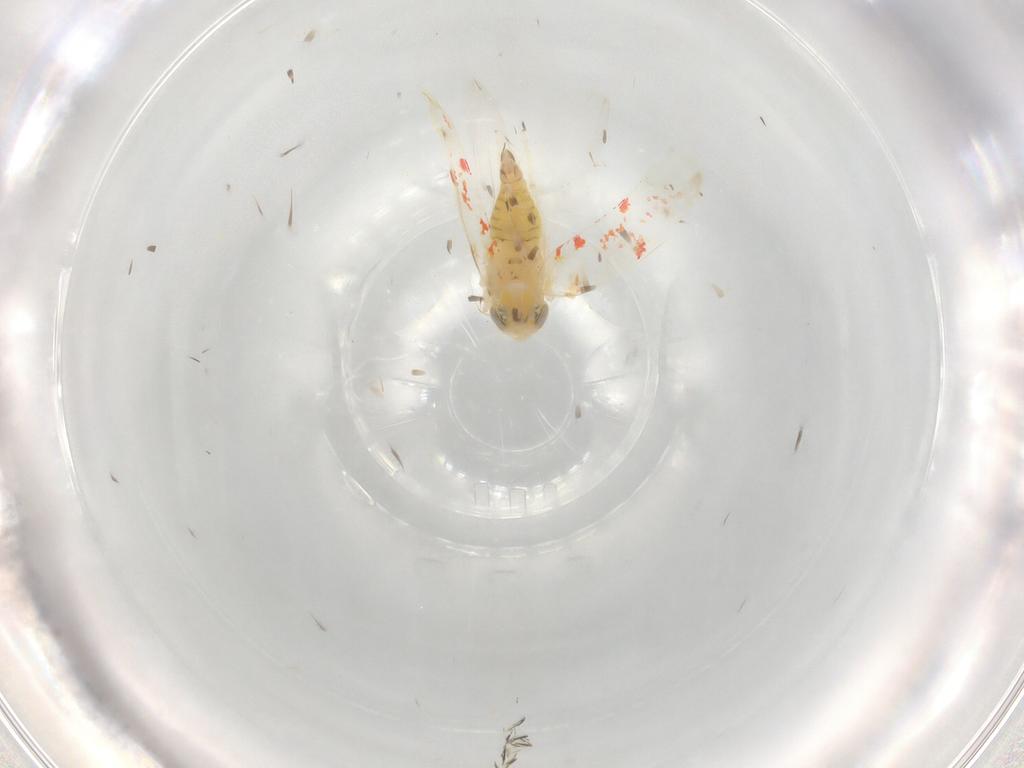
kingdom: Animalia
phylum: Arthropoda
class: Insecta
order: Hemiptera
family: Cicadellidae
